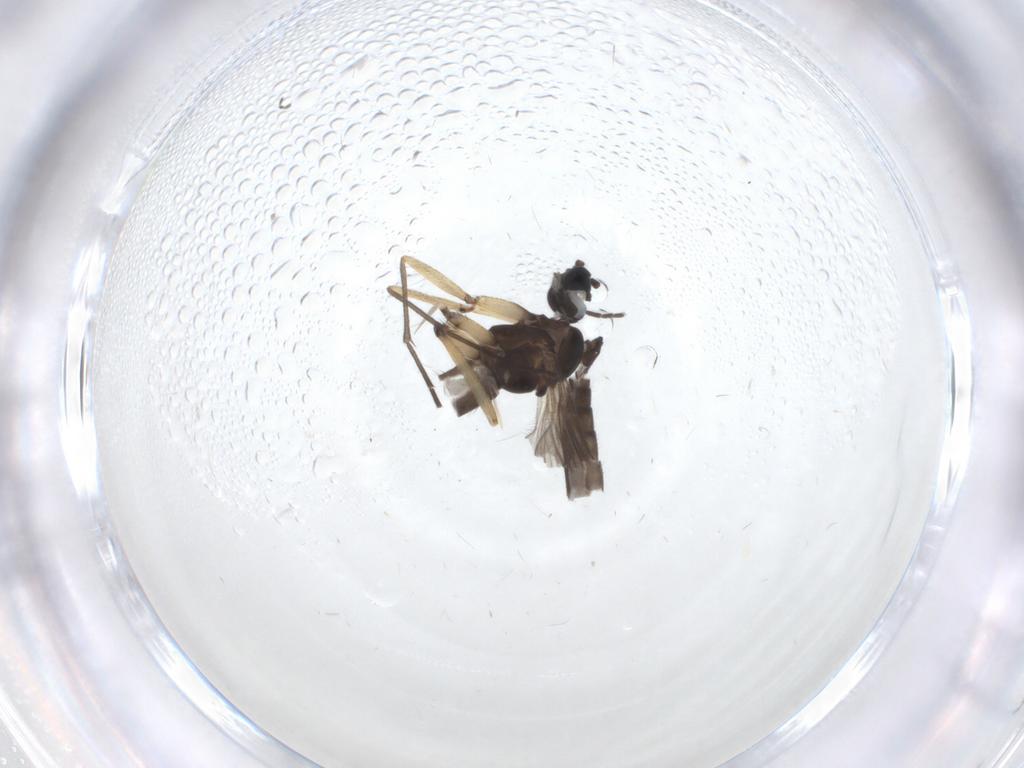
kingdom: Animalia
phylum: Arthropoda
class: Insecta
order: Diptera
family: Sciaridae
